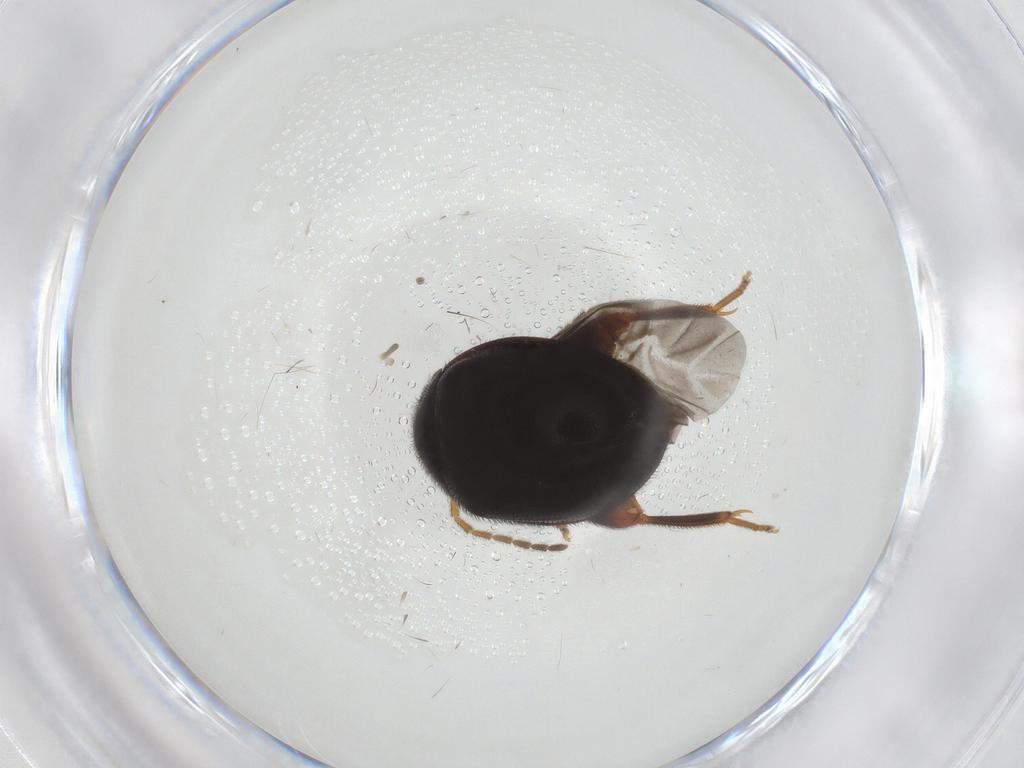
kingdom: Animalia
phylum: Arthropoda
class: Insecta
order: Coleoptera
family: Scirtidae
